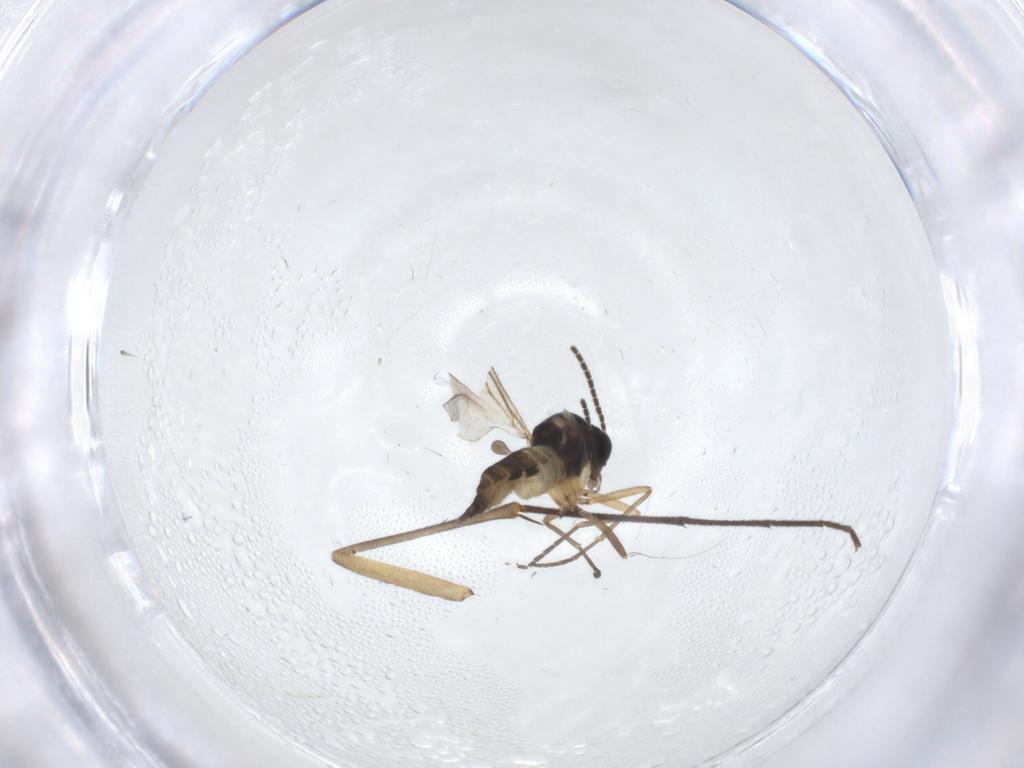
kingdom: Animalia
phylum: Arthropoda
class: Insecta
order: Diptera
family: Sciaridae
